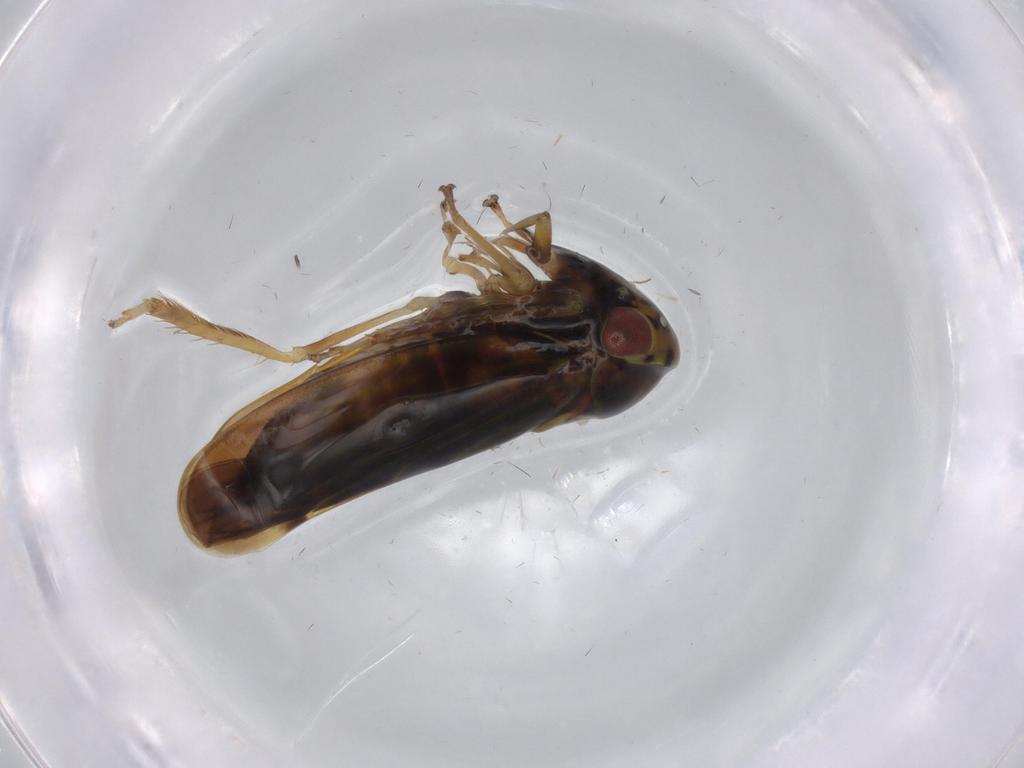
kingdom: Animalia
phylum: Arthropoda
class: Insecta
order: Hemiptera
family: Cicadellidae
